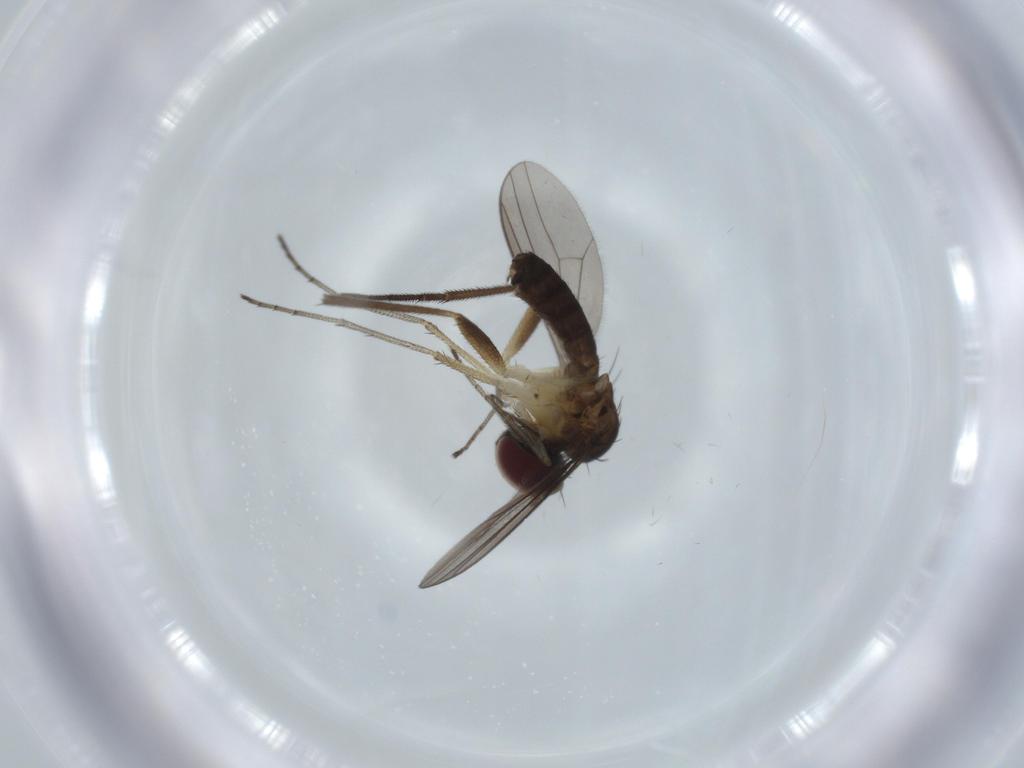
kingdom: Animalia
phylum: Arthropoda
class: Insecta
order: Diptera
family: Dolichopodidae
